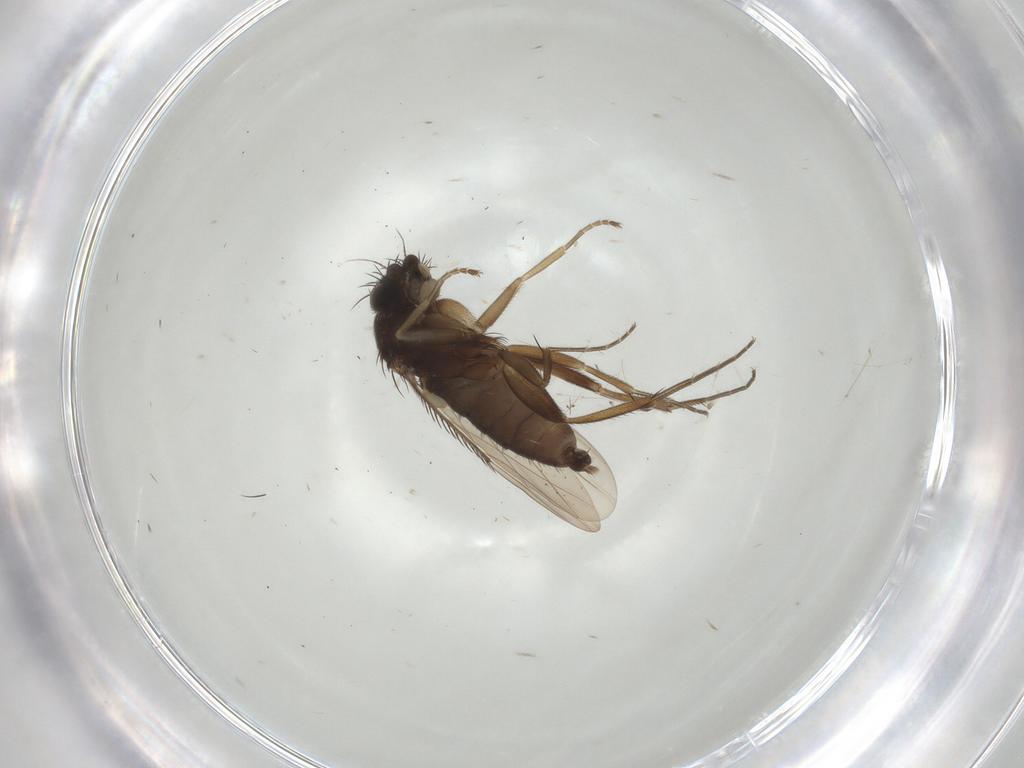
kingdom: Animalia
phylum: Arthropoda
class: Insecta
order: Diptera
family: Phoridae
